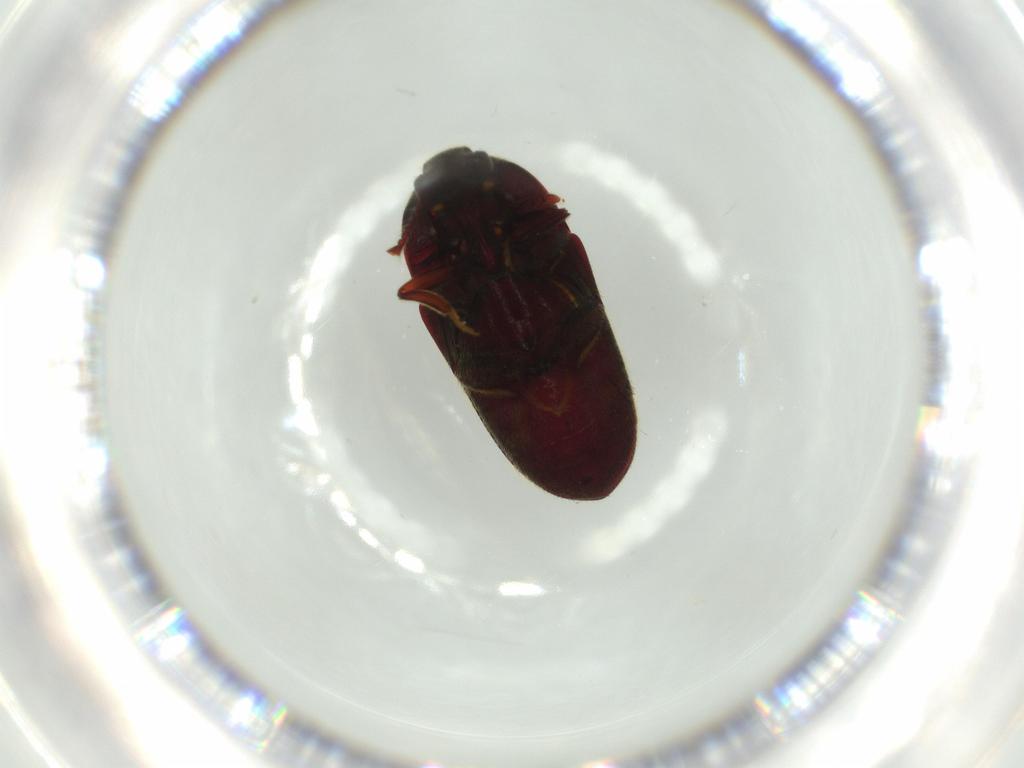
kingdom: Animalia
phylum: Arthropoda
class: Insecta
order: Coleoptera
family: Throscidae
